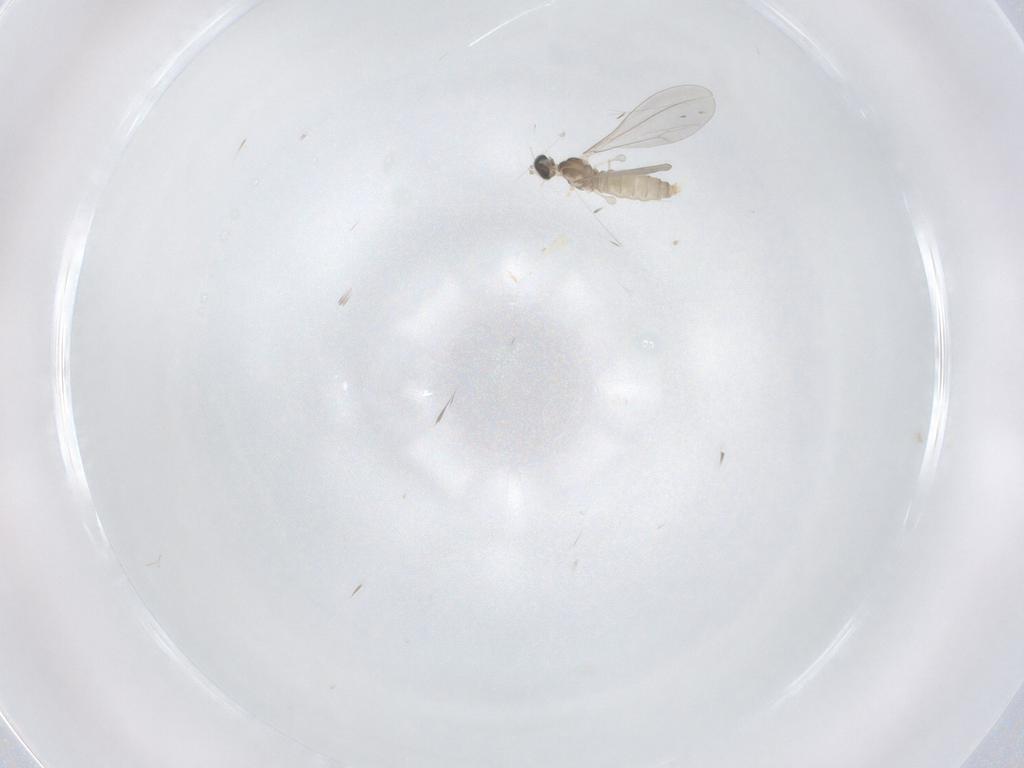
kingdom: Animalia
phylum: Arthropoda
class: Insecta
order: Diptera
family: Cecidomyiidae
